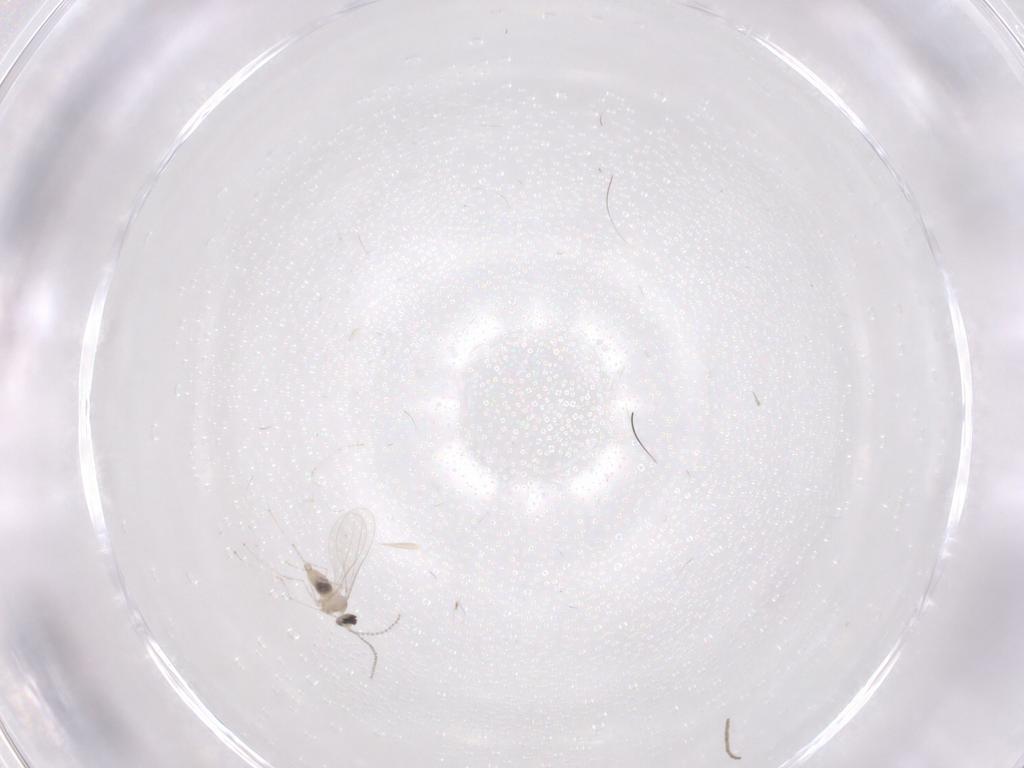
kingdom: Animalia
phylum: Arthropoda
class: Insecta
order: Diptera
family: Cecidomyiidae
